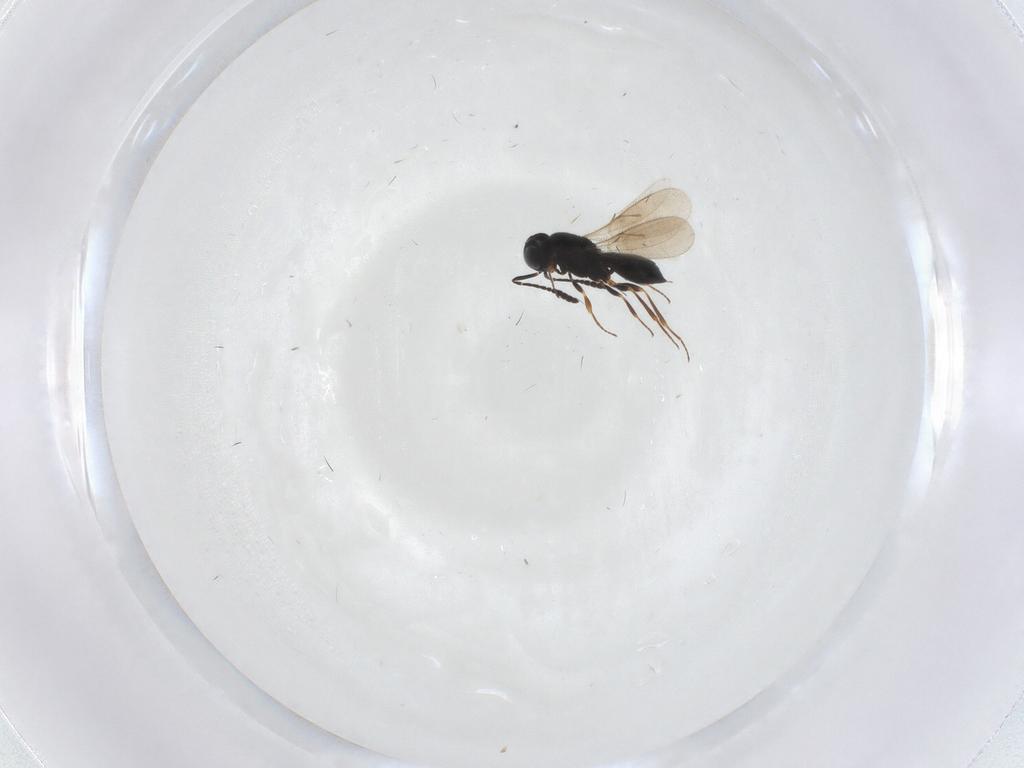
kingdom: Animalia
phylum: Arthropoda
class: Insecta
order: Hymenoptera
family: Scelionidae
